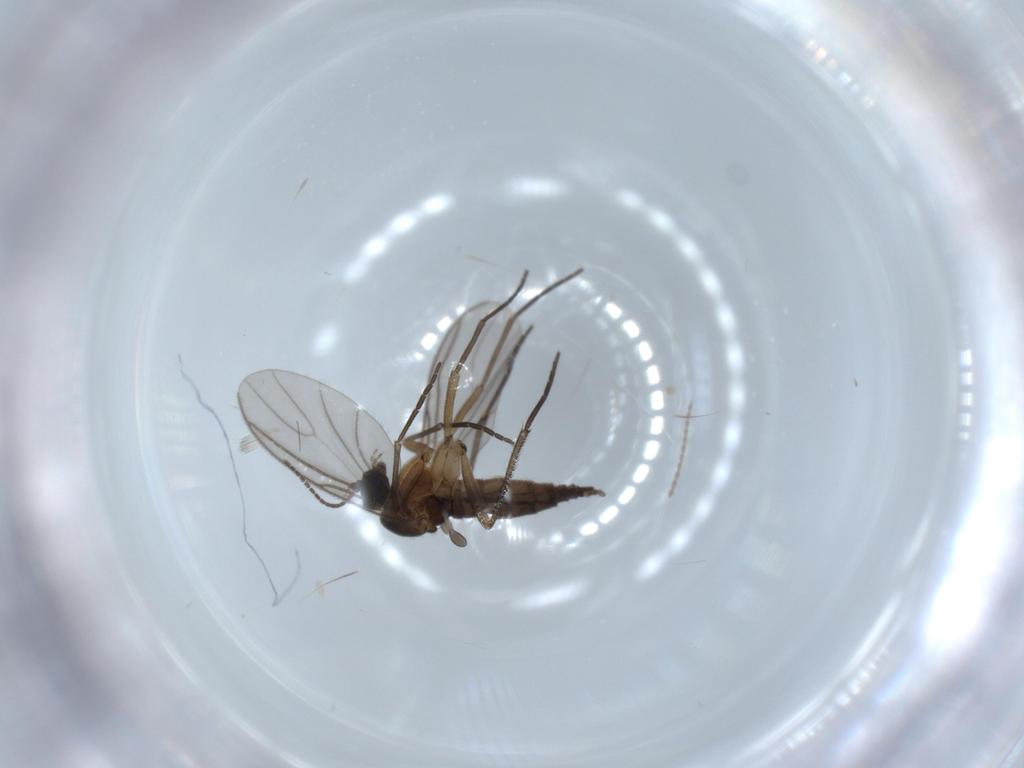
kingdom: Animalia
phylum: Arthropoda
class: Insecta
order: Diptera
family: Sciaridae
